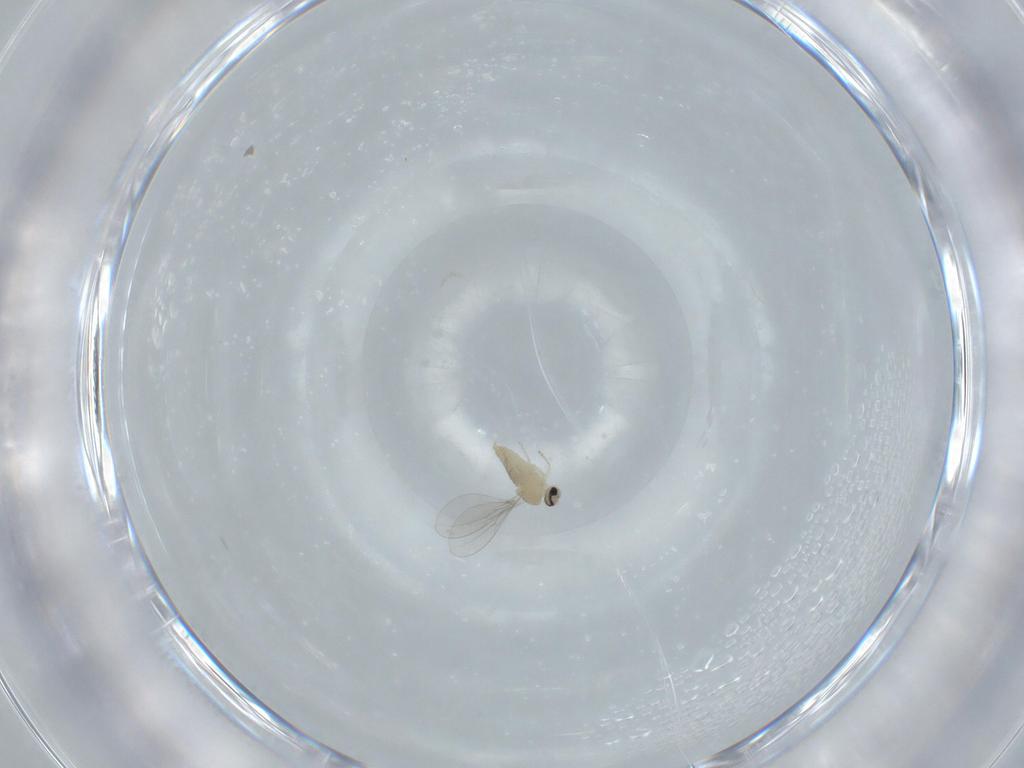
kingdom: Animalia
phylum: Arthropoda
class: Insecta
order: Diptera
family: Cecidomyiidae
